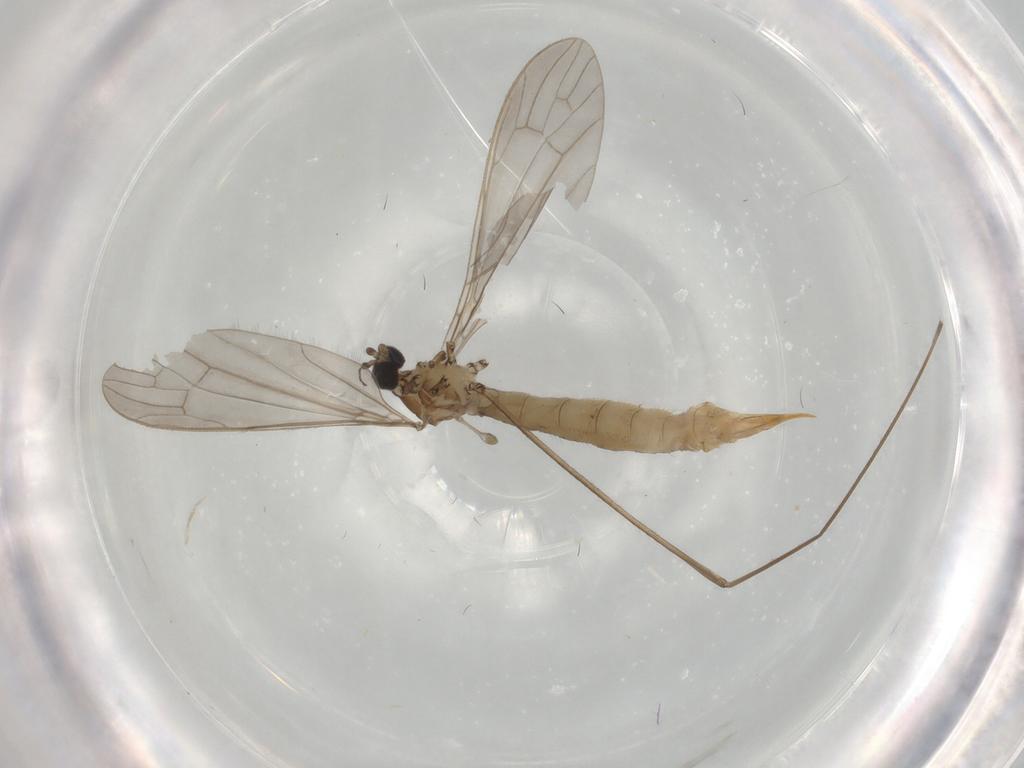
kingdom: Animalia
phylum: Arthropoda
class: Insecta
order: Diptera
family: Limoniidae
